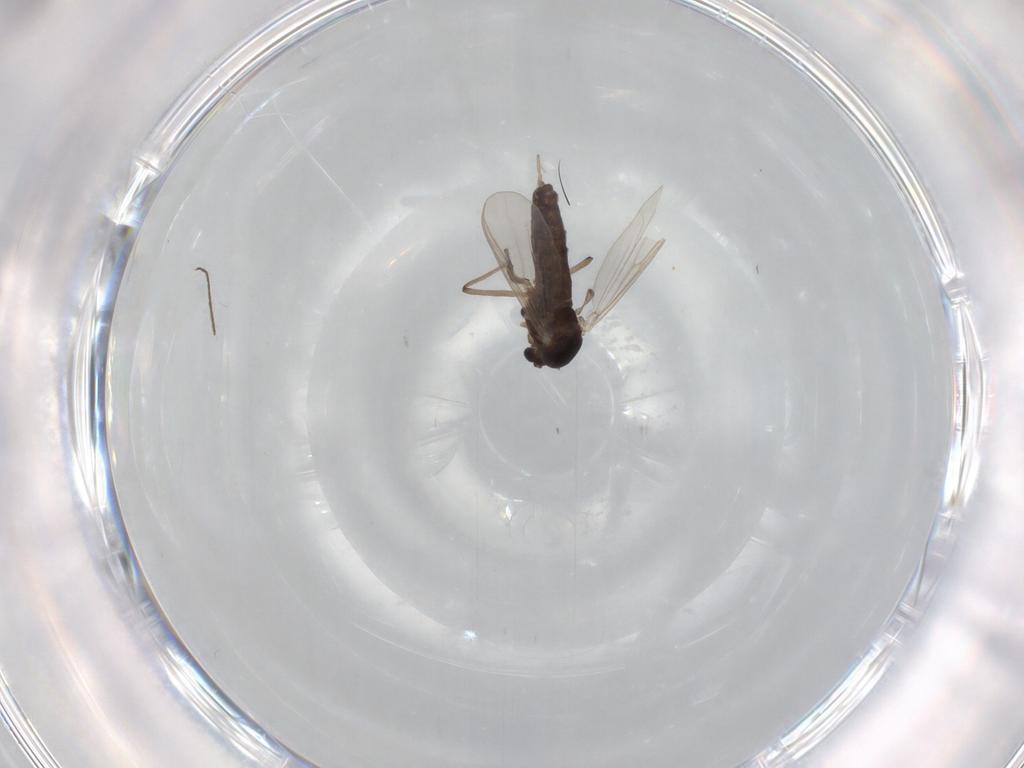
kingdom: Animalia
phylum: Arthropoda
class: Insecta
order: Diptera
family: Chironomidae
